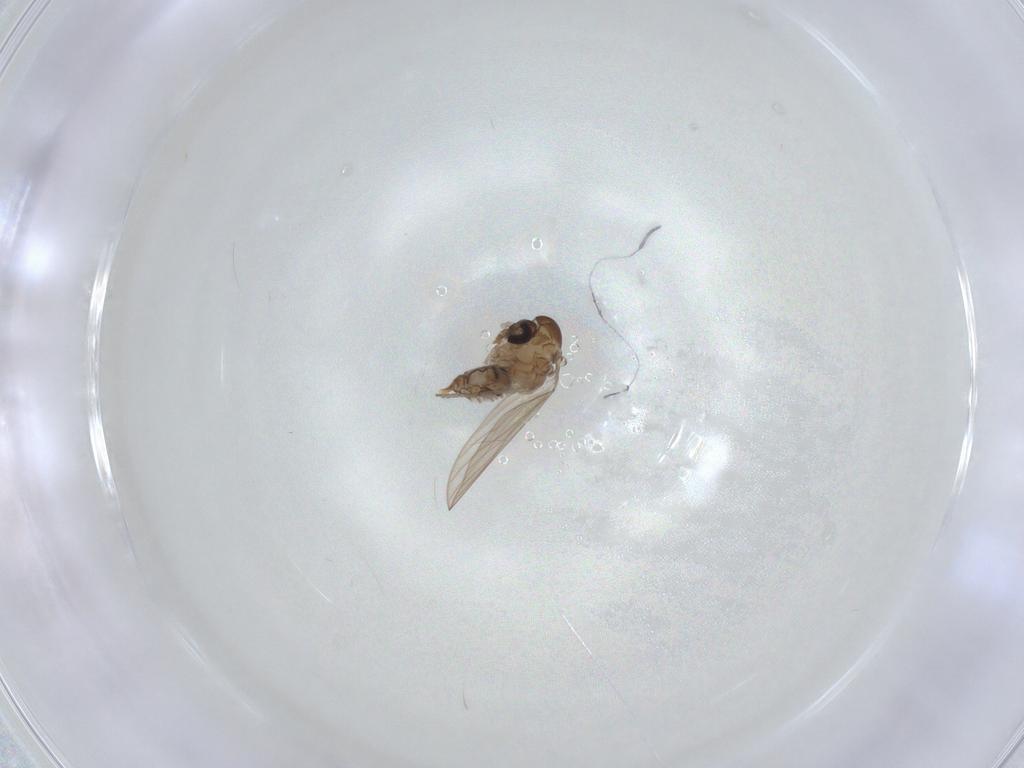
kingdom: Animalia
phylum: Arthropoda
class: Insecta
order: Diptera
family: Psychodidae
